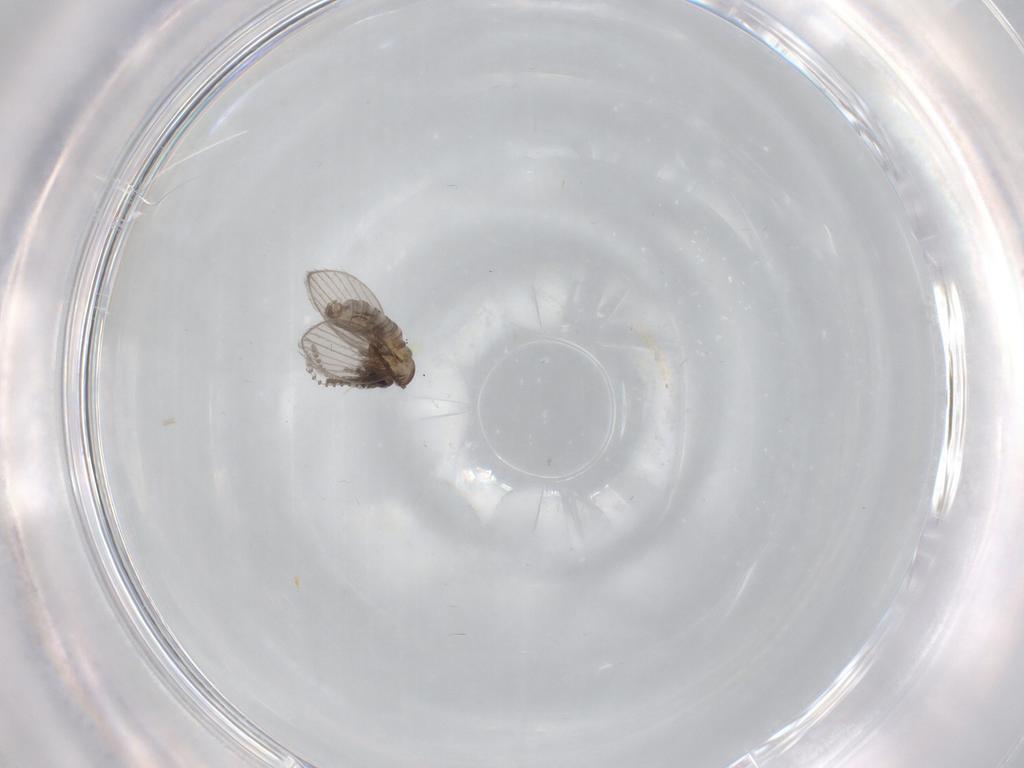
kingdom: Animalia
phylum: Arthropoda
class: Insecta
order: Diptera
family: Psychodidae
